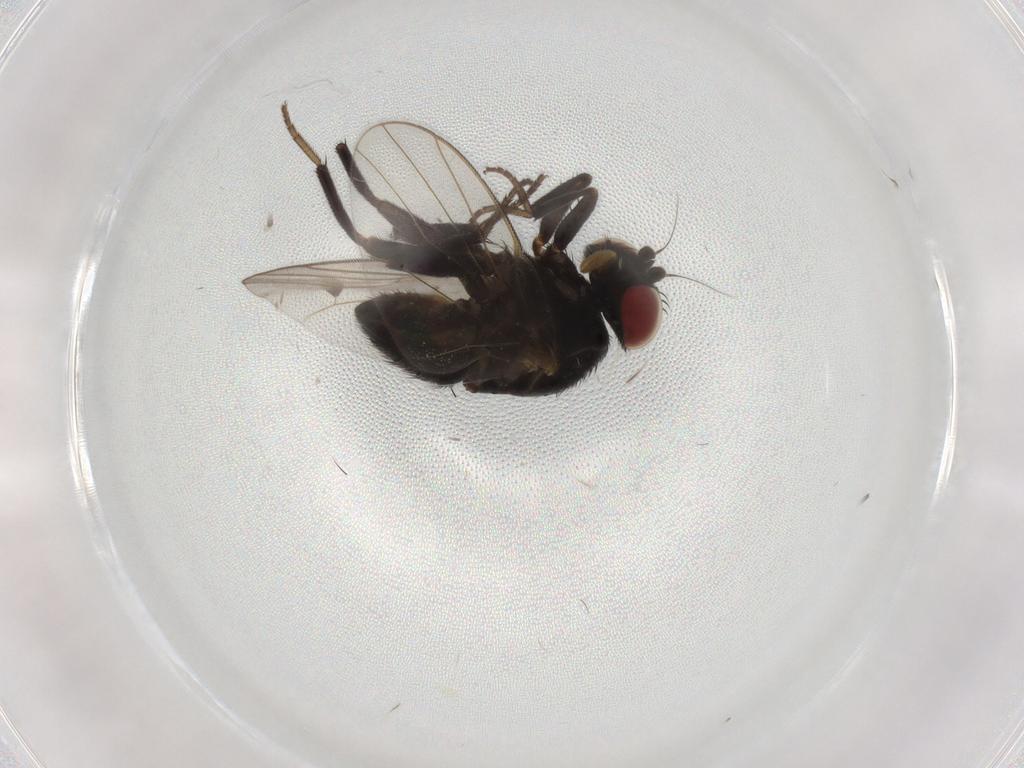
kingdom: Animalia
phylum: Arthropoda
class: Insecta
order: Diptera
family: Agromyzidae
